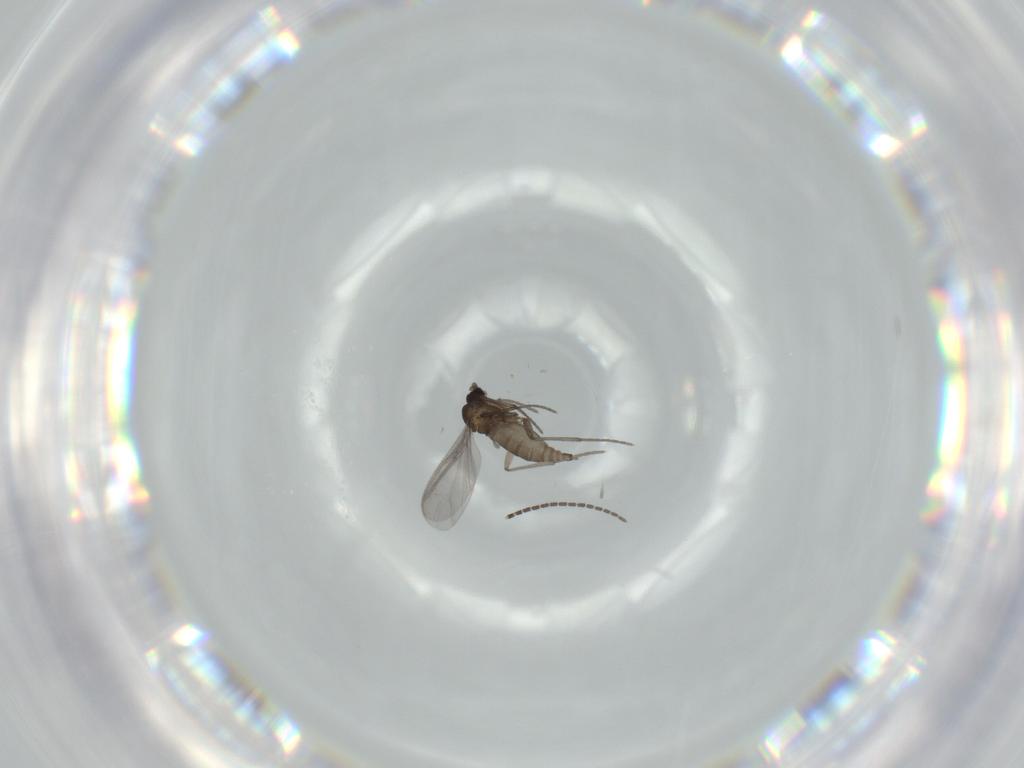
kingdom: Animalia
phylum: Arthropoda
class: Insecta
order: Diptera
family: Sciaridae
